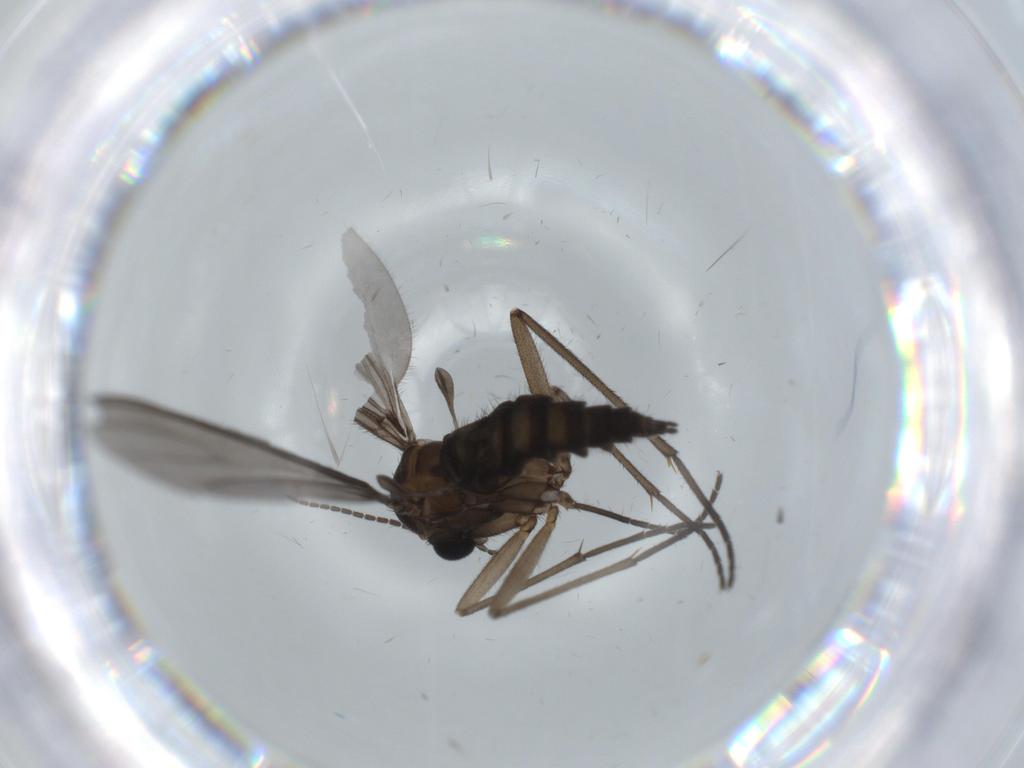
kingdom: Animalia
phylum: Arthropoda
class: Insecta
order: Diptera
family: Sciaridae
